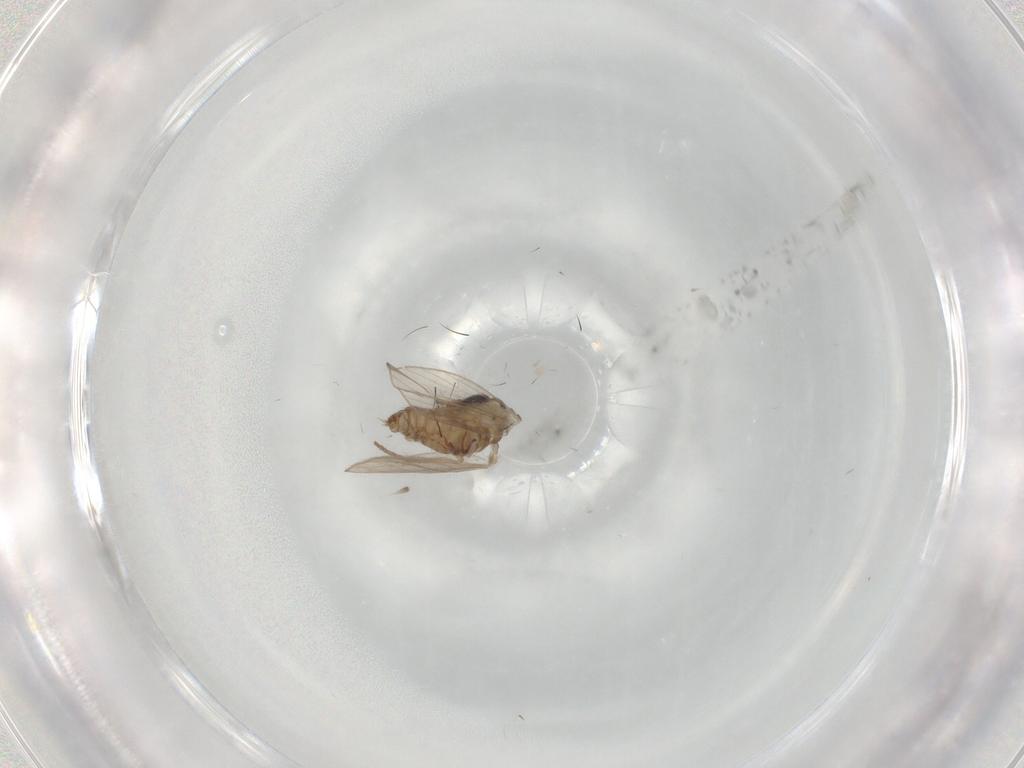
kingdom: Animalia
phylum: Arthropoda
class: Insecta
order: Diptera
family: Psychodidae
